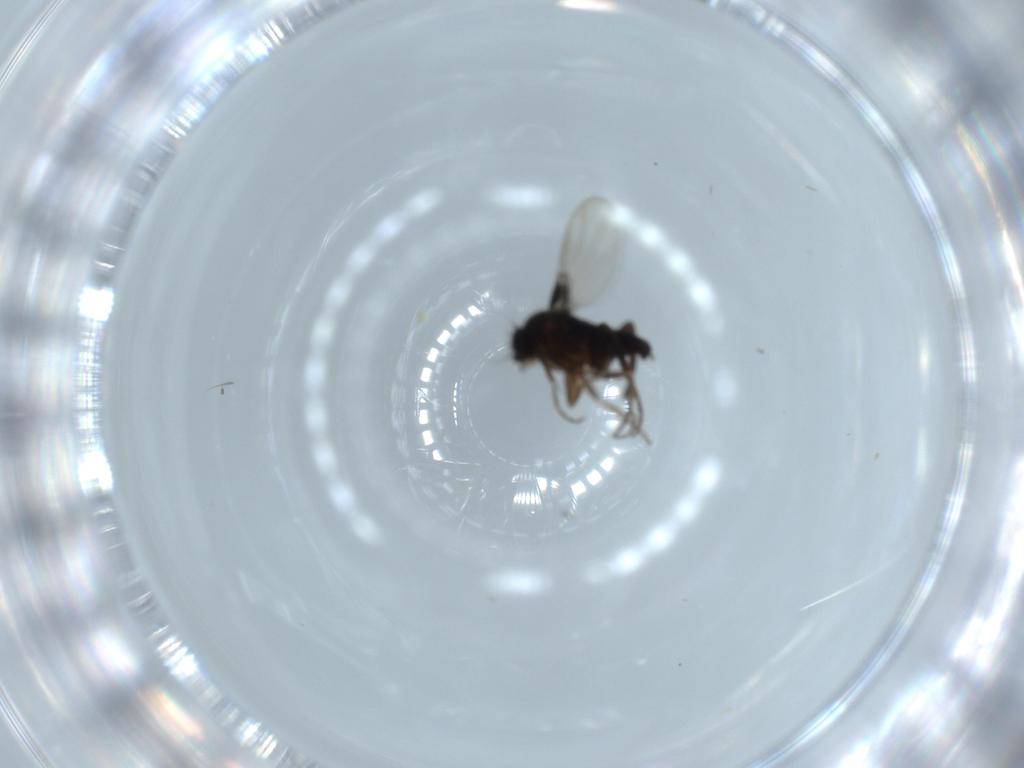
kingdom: Animalia
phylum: Arthropoda
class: Insecta
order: Diptera
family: Phoridae
